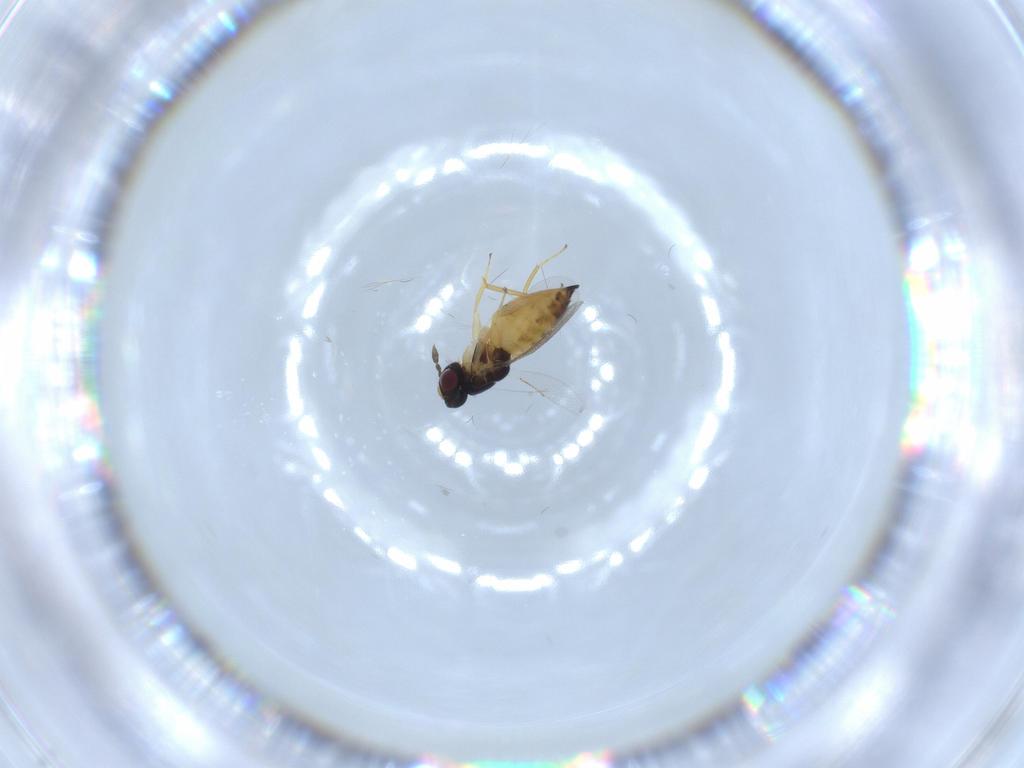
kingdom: Animalia
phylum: Arthropoda
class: Insecta
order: Hymenoptera
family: Eulophidae
